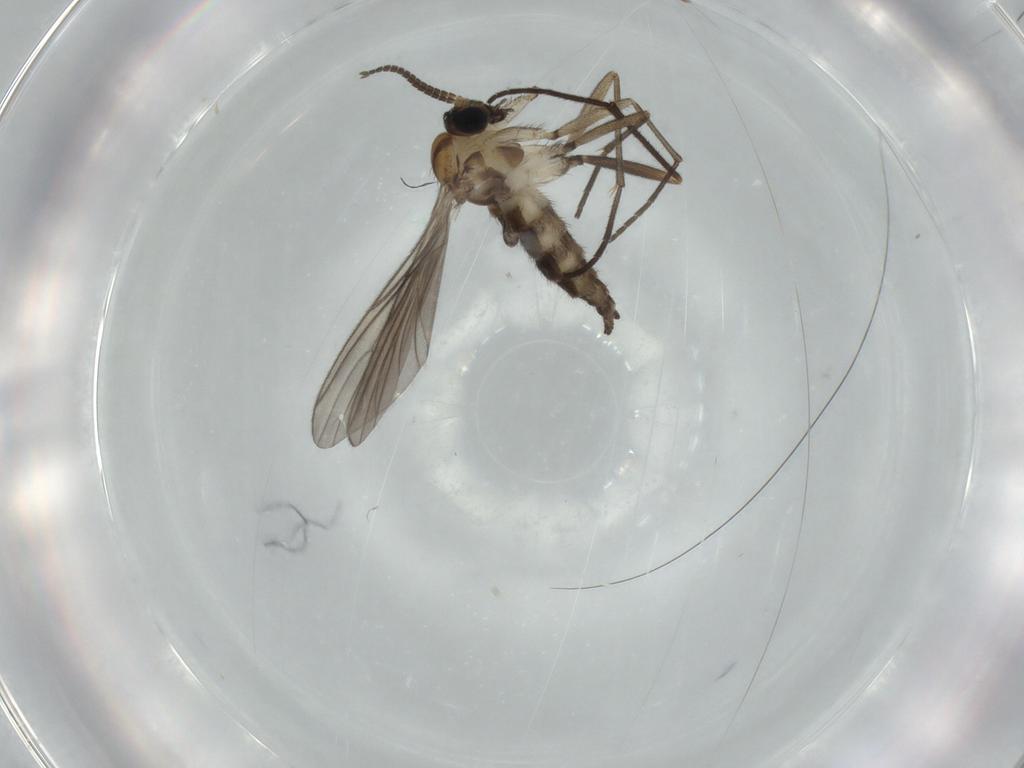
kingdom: Animalia
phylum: Arthropoda
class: Insecta
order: Diptera
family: Sciaridae
